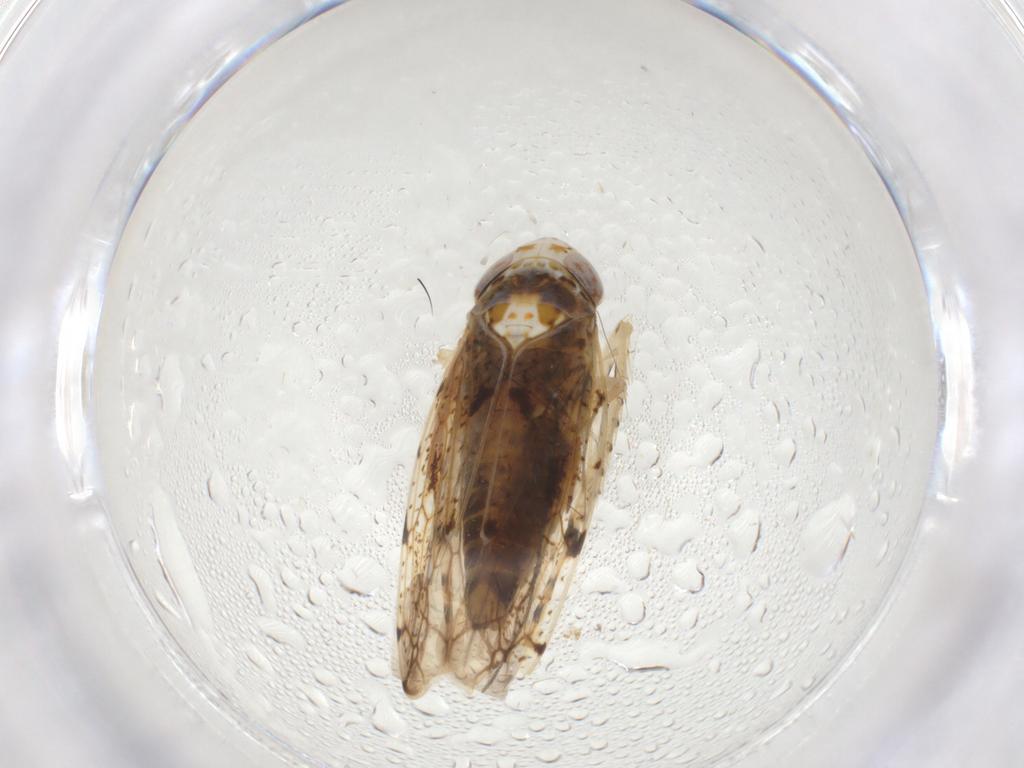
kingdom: Animalia
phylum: Arthropoda
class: Insecta
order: Hemiptera
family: Cicadellidae
